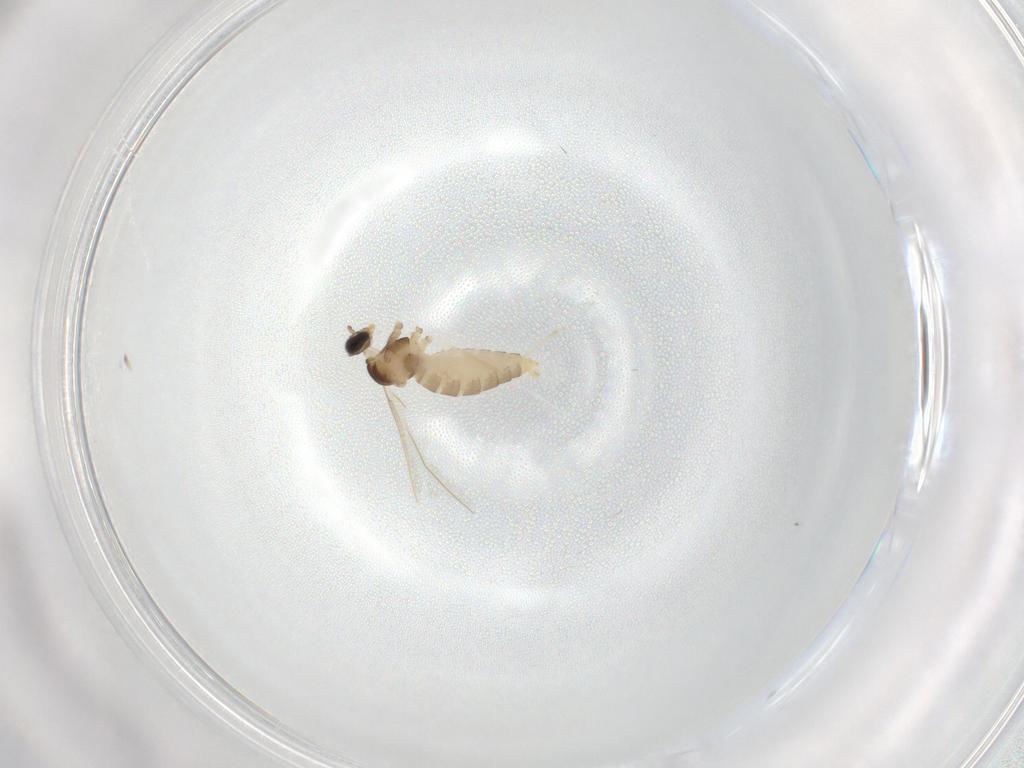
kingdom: Animalia
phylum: Arthropoda
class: Insecta
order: Diptera
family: Cecidomyiidae
